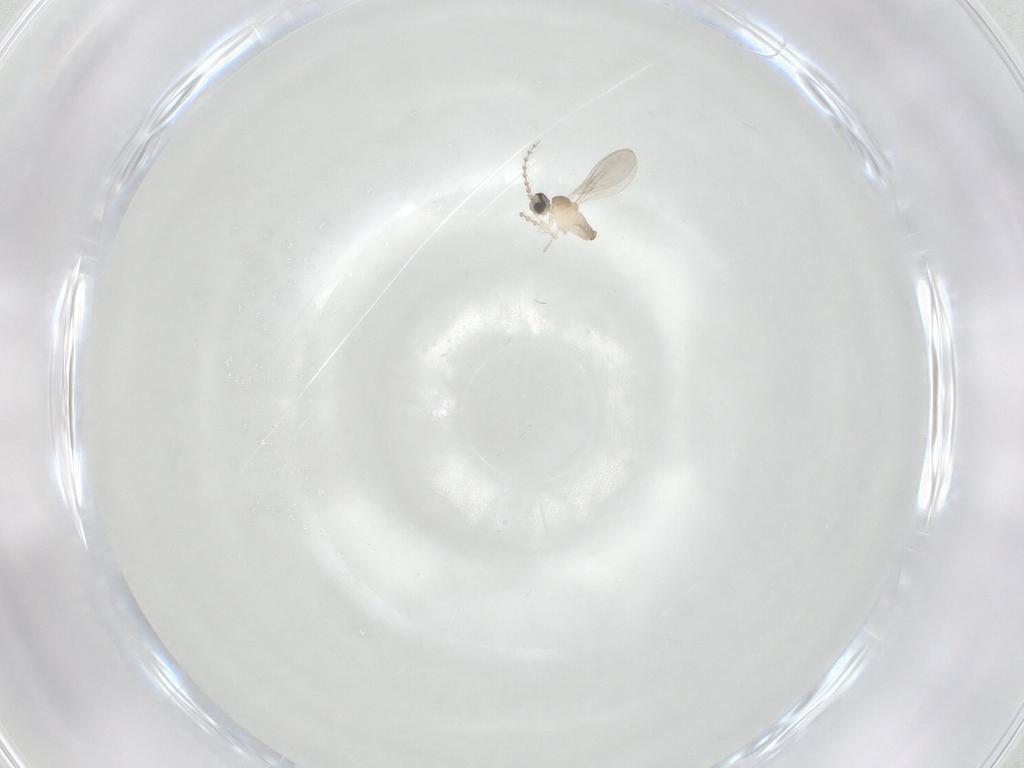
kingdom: Animalia
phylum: Arthropoda
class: Insecta
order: Diptera
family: Cecidomyiidae
